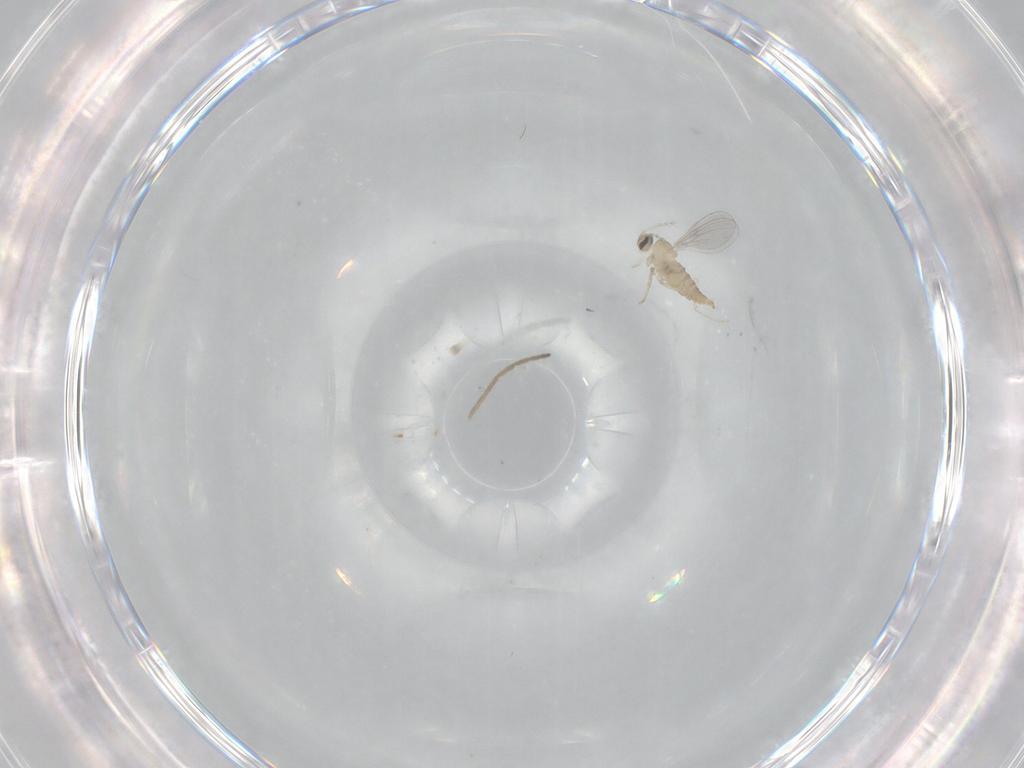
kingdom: Animalia
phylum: Arthropoda
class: Insecta
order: Diptera
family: Cecidomyiidae
